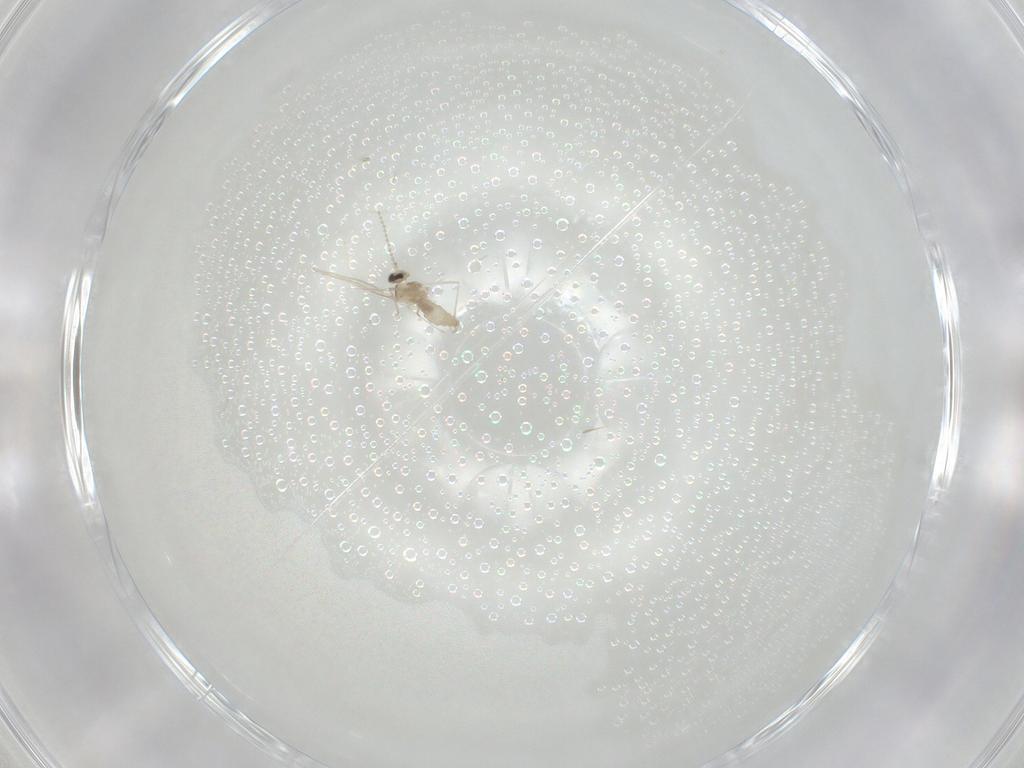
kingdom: Animalia
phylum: Arthropoda
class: Insecta
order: Diptera
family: Cecidomyiidae
